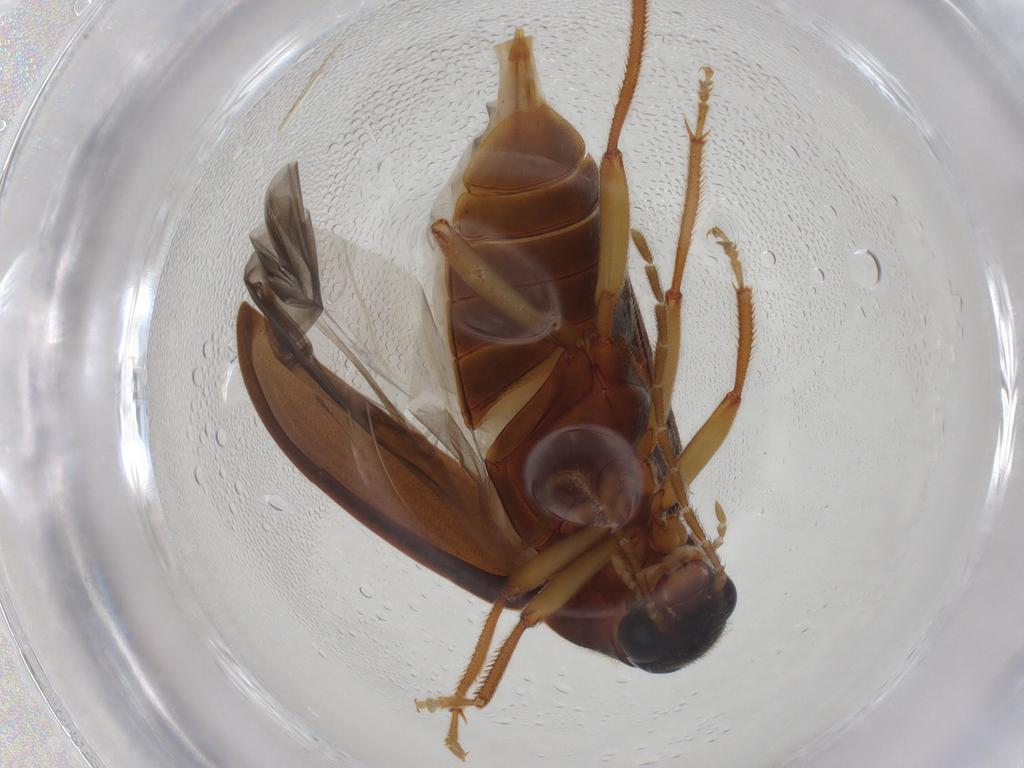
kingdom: Animalia
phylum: Arthropoda
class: Insecta
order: Coleoptera
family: Ptilodactylidae
